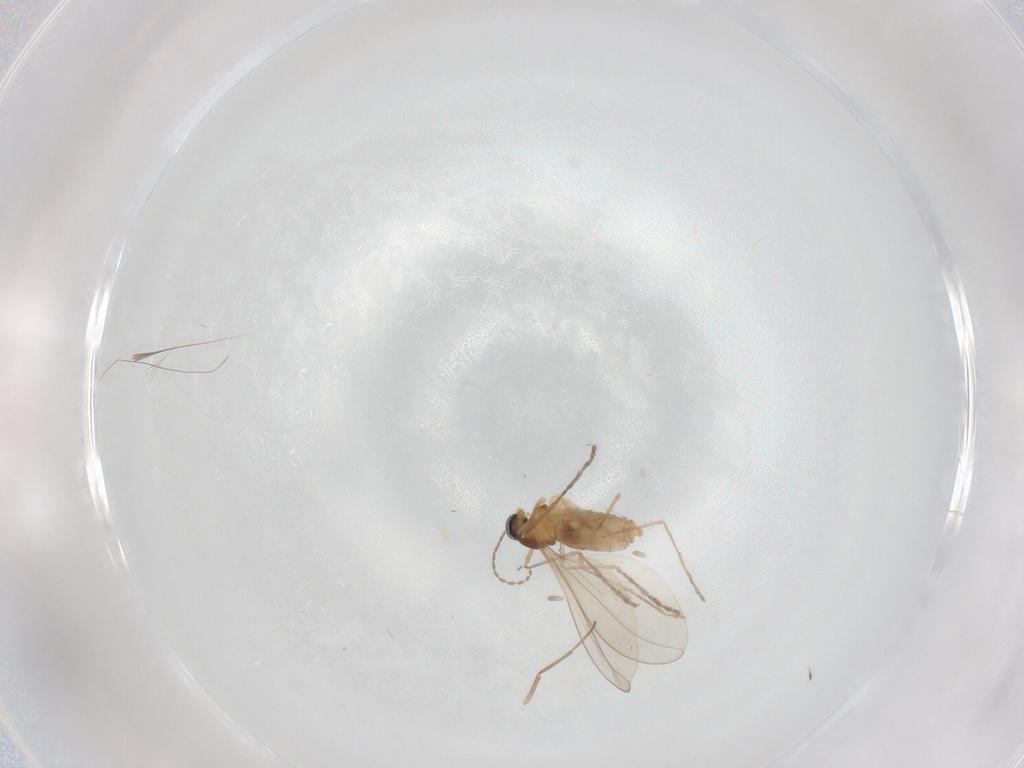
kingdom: Animalia
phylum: Arthropoda
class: Insecta
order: Diptera
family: Cecidomyiidae
